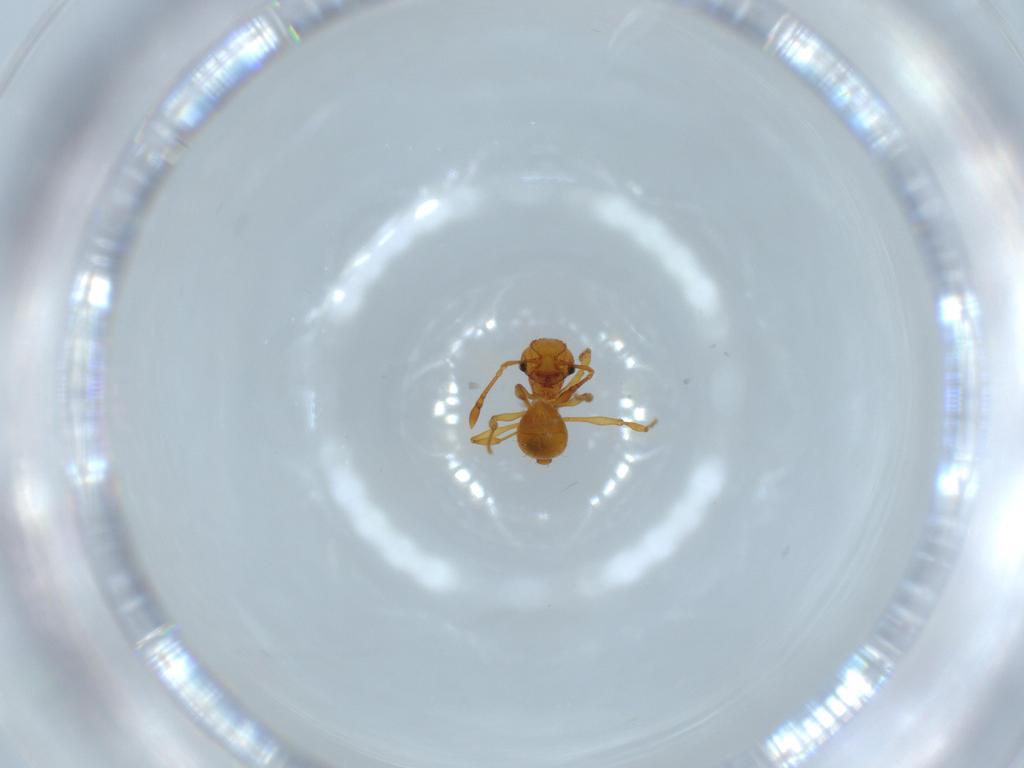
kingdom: Animalia
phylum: Arthropoda
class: Insecta
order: Hymenoptera
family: Formicidae
